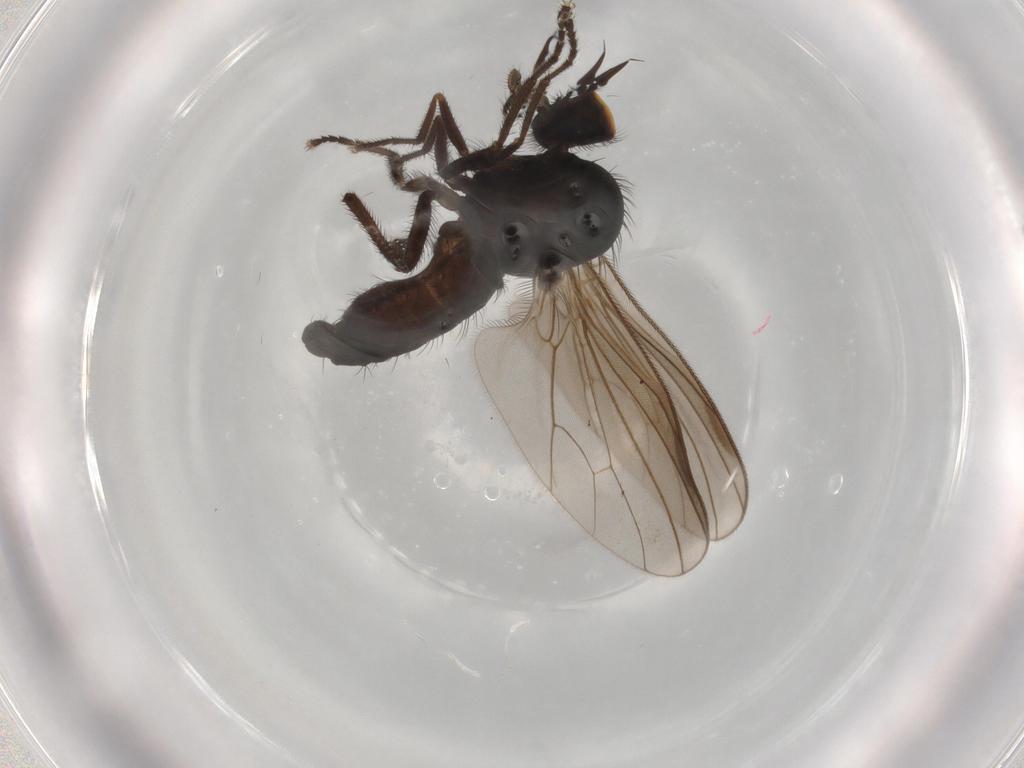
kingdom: Animalia
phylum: Arthropoda
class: Insecta
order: Diptera
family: Dolichopodidae
